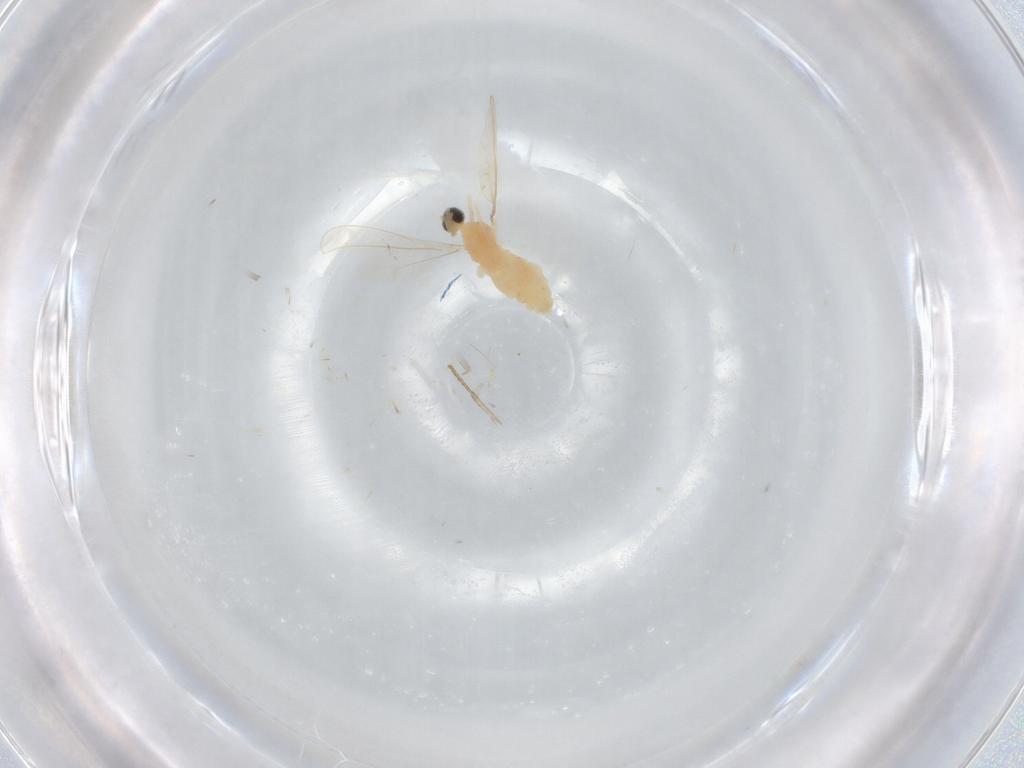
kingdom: Animalia
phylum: Arthropoda
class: Insecta
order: Diptera
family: Cecidomyiidae
